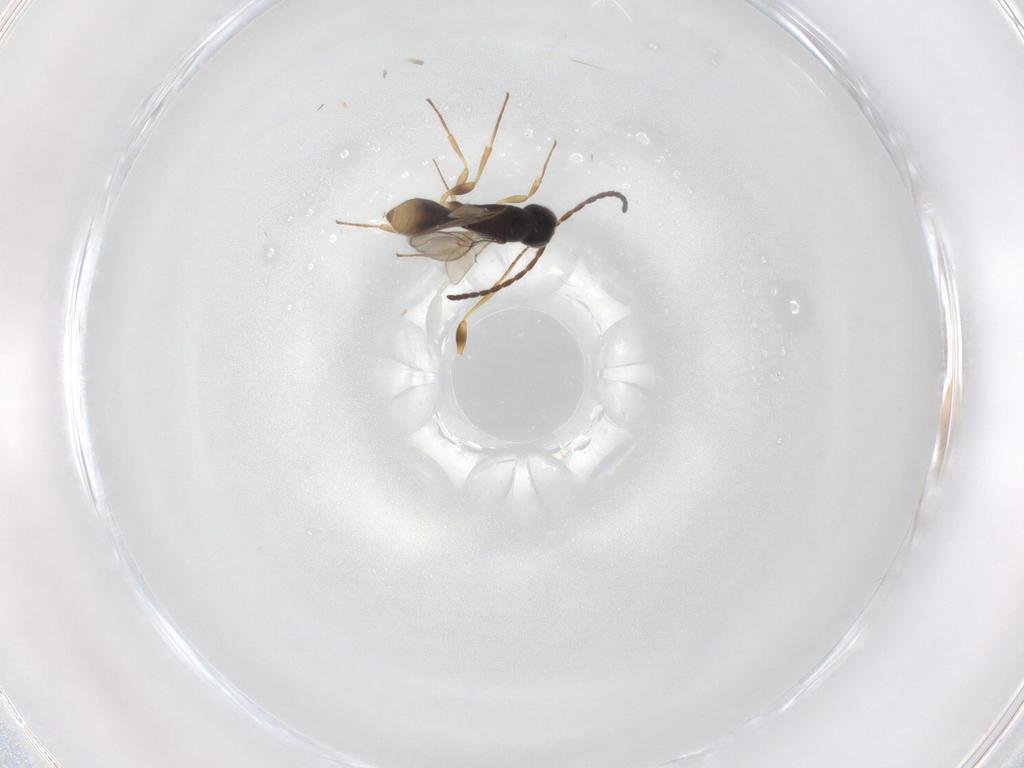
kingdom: Animalia
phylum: Arthropoda
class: Insecta
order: Hymenoptera
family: Scelionidae
